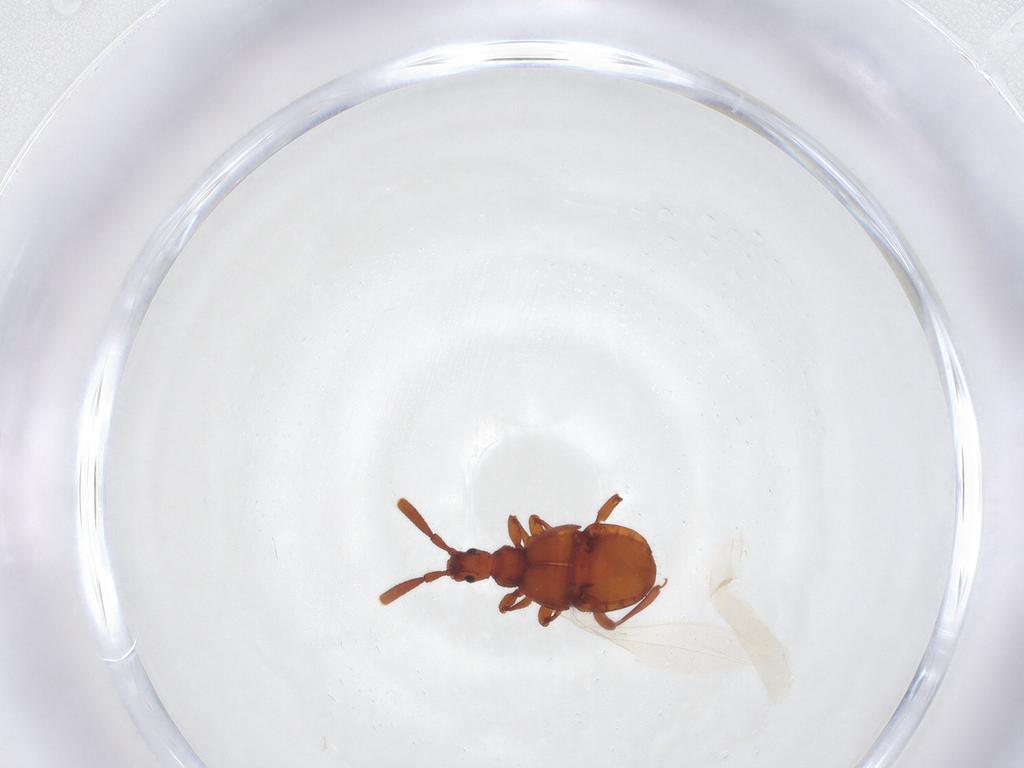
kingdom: Animalia
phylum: Arthropoda
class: Insecta
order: Coleoptera
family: Staphylinidae
